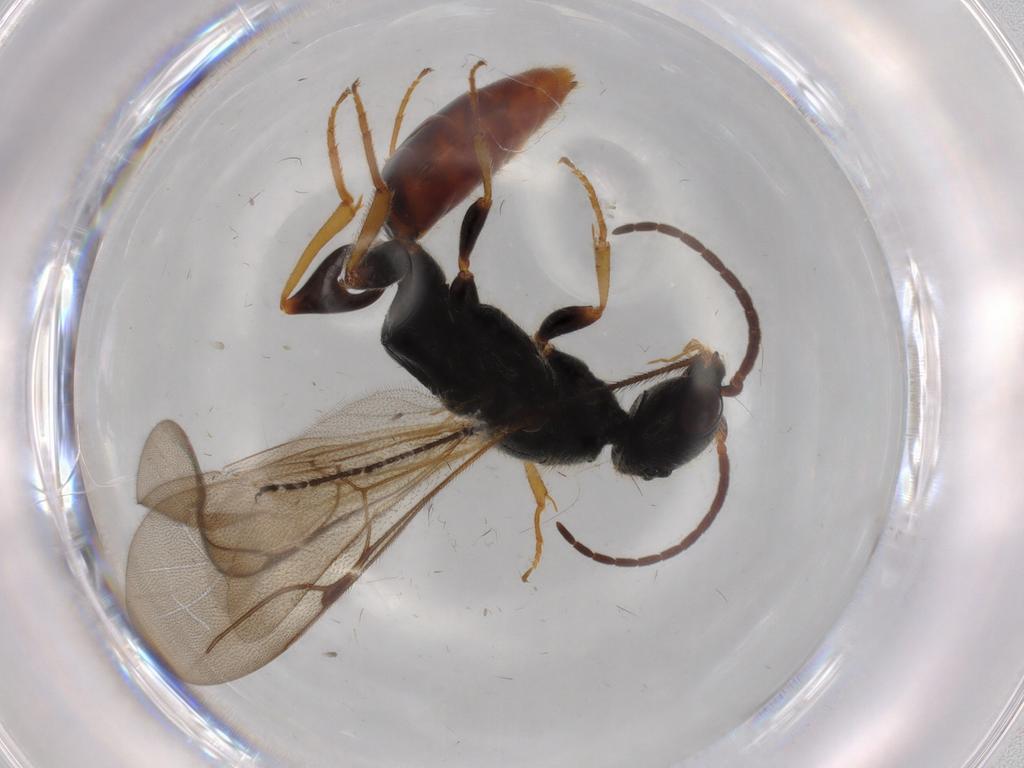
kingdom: Animalia
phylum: Arthropoda
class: Insecta
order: Hymenoptera
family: Bethylidae
